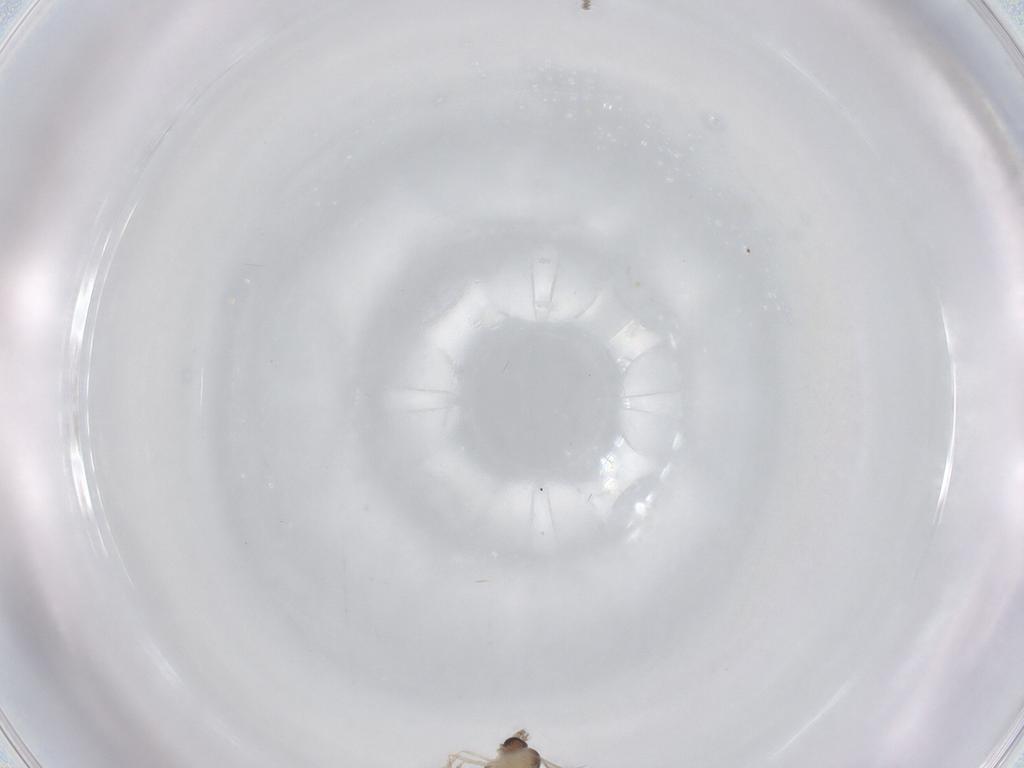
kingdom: Animalia
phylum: Arthropoda
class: Insecta
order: Diptera
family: Cecidomyiidae
